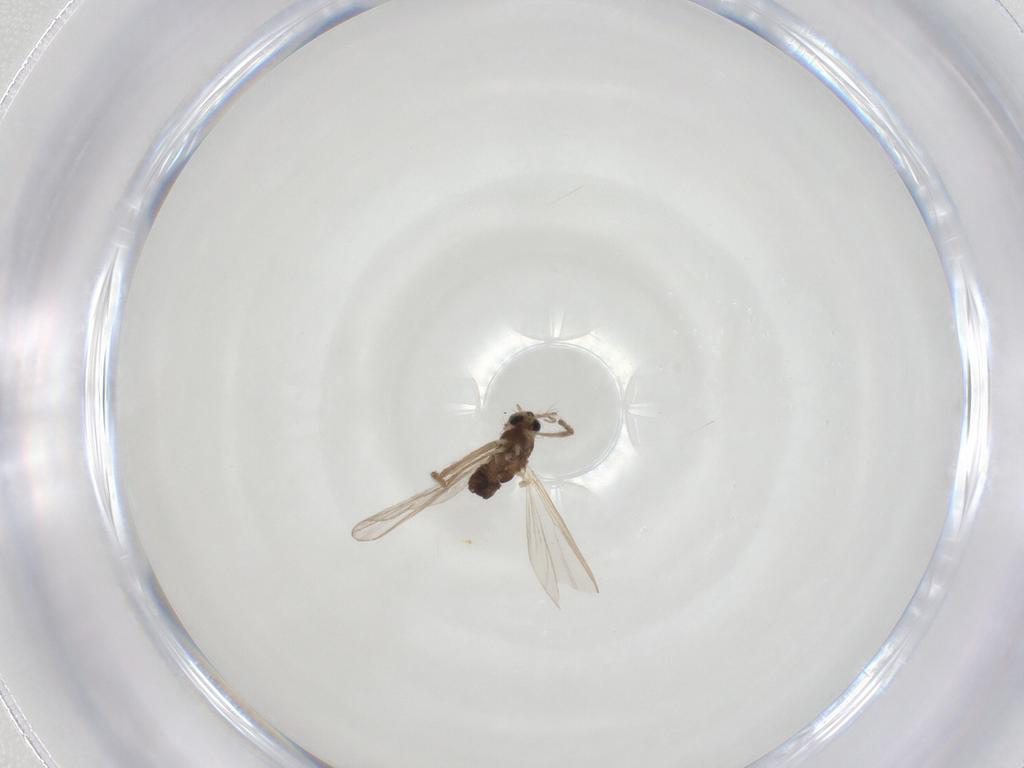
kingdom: Animalia
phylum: Arthropoda
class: Insecta
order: Diptera
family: Chironomidae
